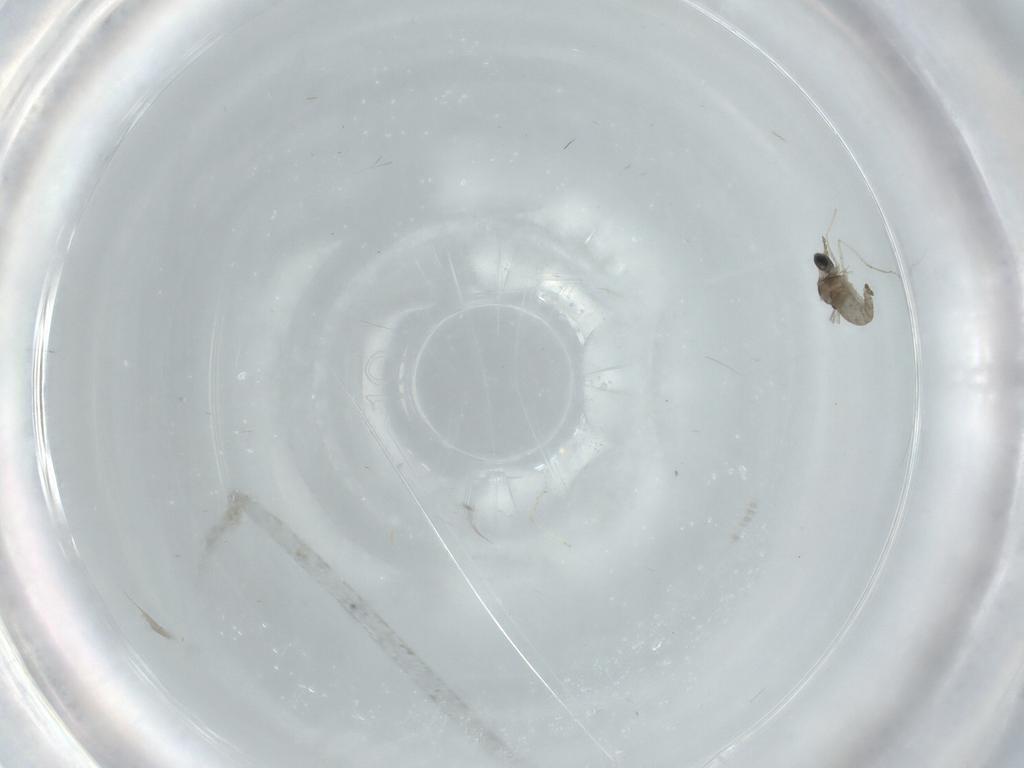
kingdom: Animalia
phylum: Arthropoda
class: Insecta
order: Diptera
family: Cecidomyiidae
